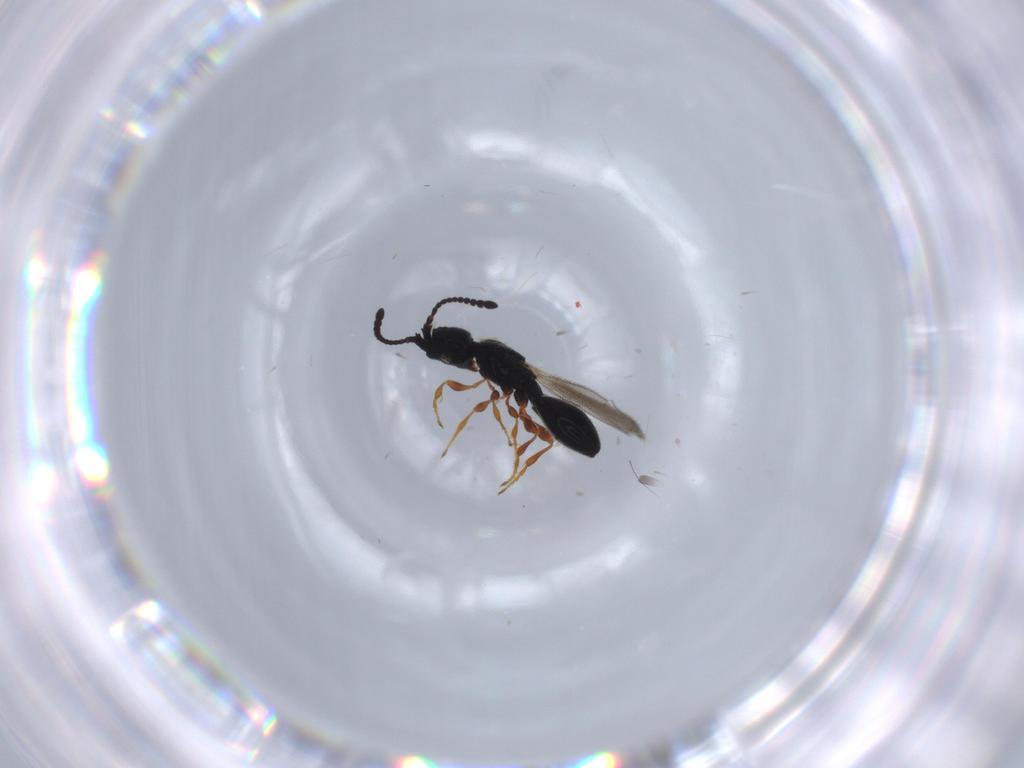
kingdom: Animalia
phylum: Arthropoda
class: Insecta
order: Hymenoptera
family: Diapriidae
